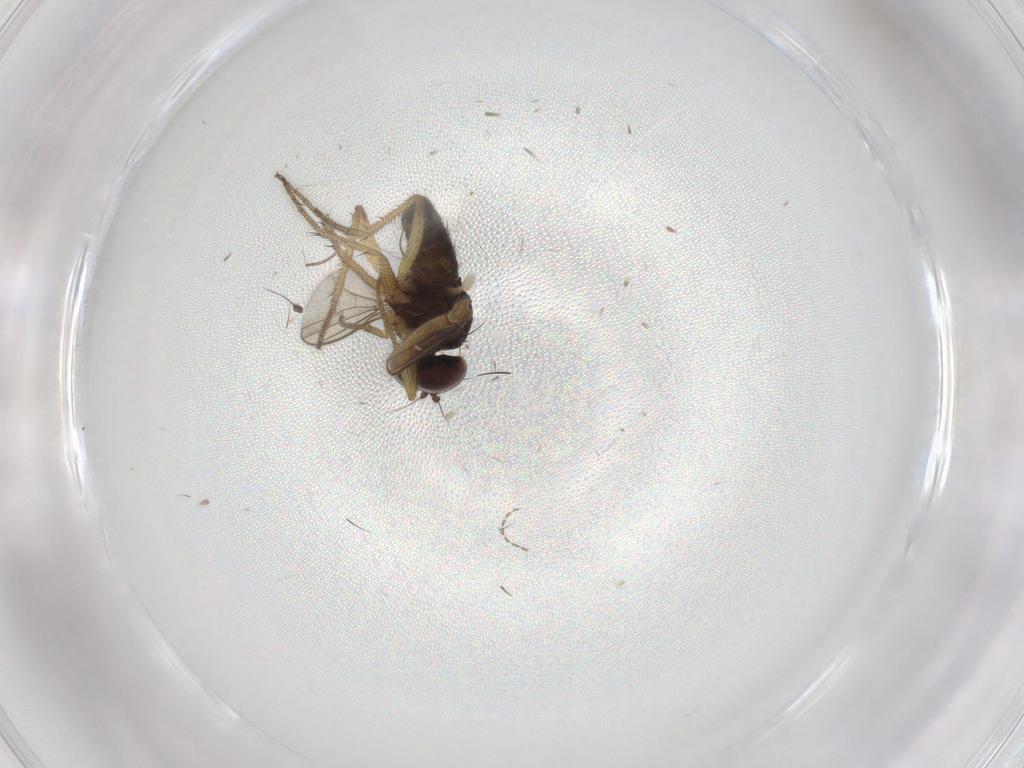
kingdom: Animalia
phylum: Arthropoda
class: Insecta
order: Diptera
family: Chironomidae
